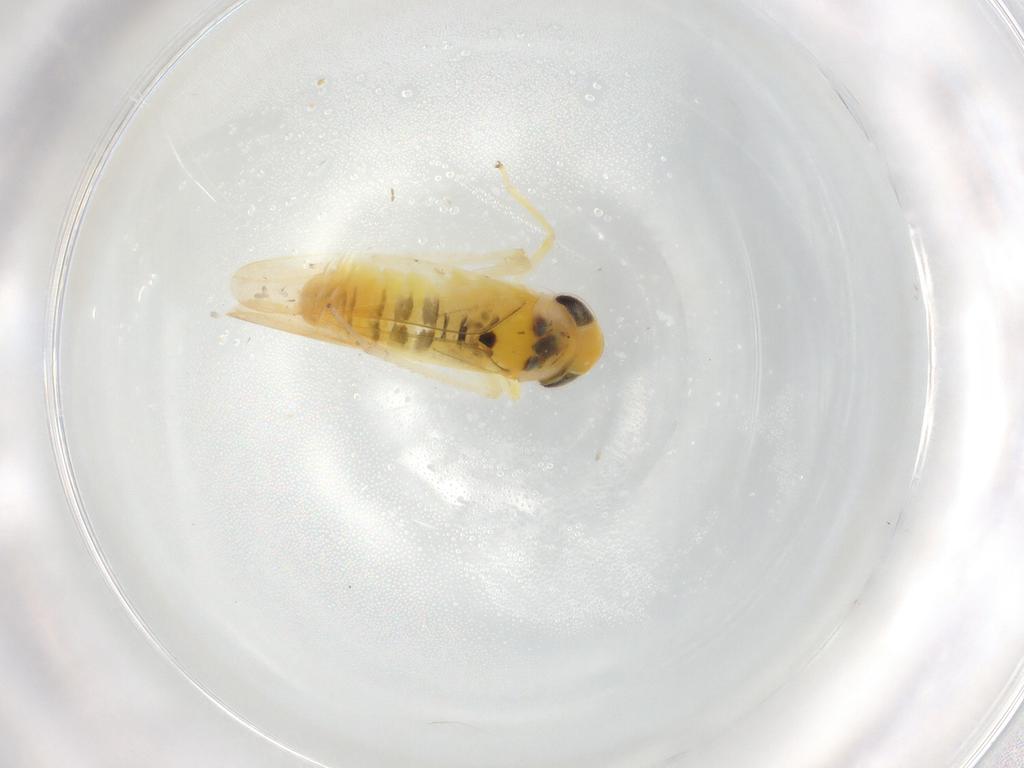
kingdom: Animalia
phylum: Arthropoda
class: Insecta
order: Hemiptera
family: Cicadellidae
